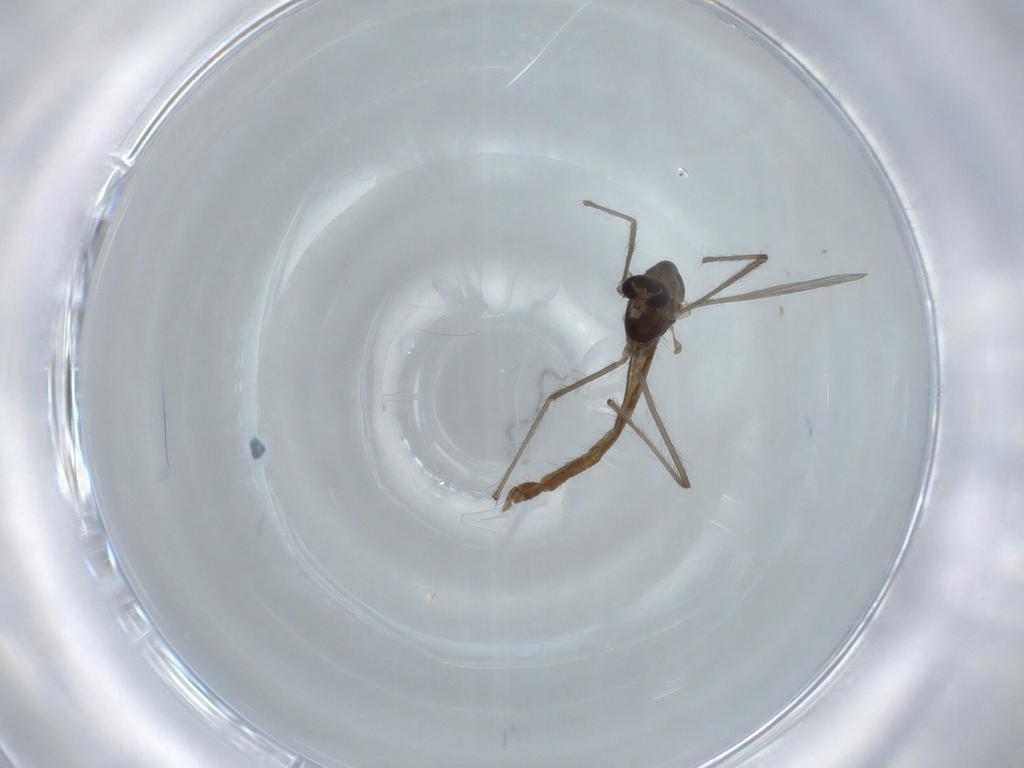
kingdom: Animalia
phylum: Arthropoda
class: Insecta
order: Diptera
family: Chironomidae
